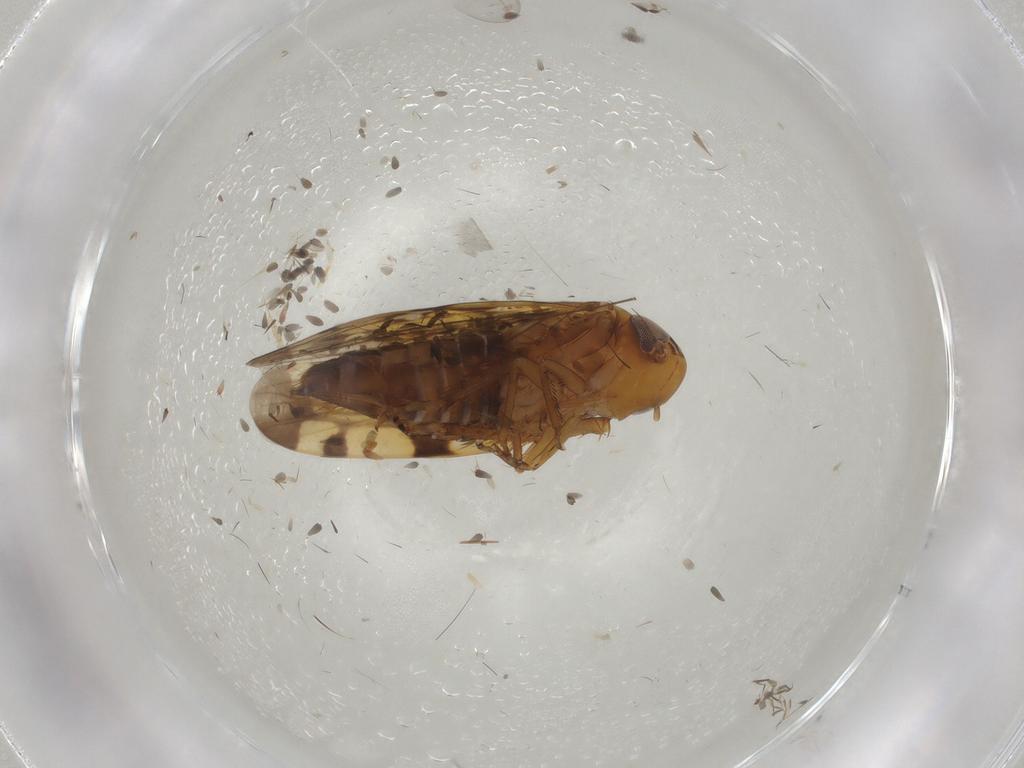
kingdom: Animalia
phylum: Arthropoda
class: Insecta
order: Hemiptera
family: Cicadellidae
